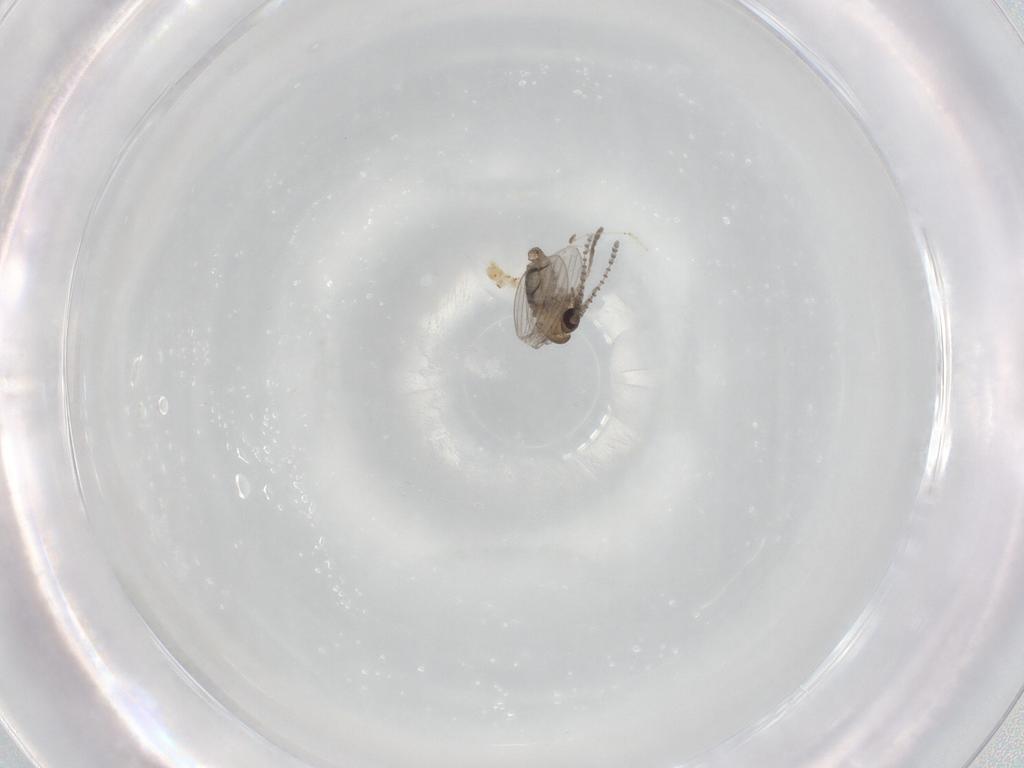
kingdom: Animalia
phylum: Arthropoda
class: Insecta
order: Diptera
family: Psychodidae
